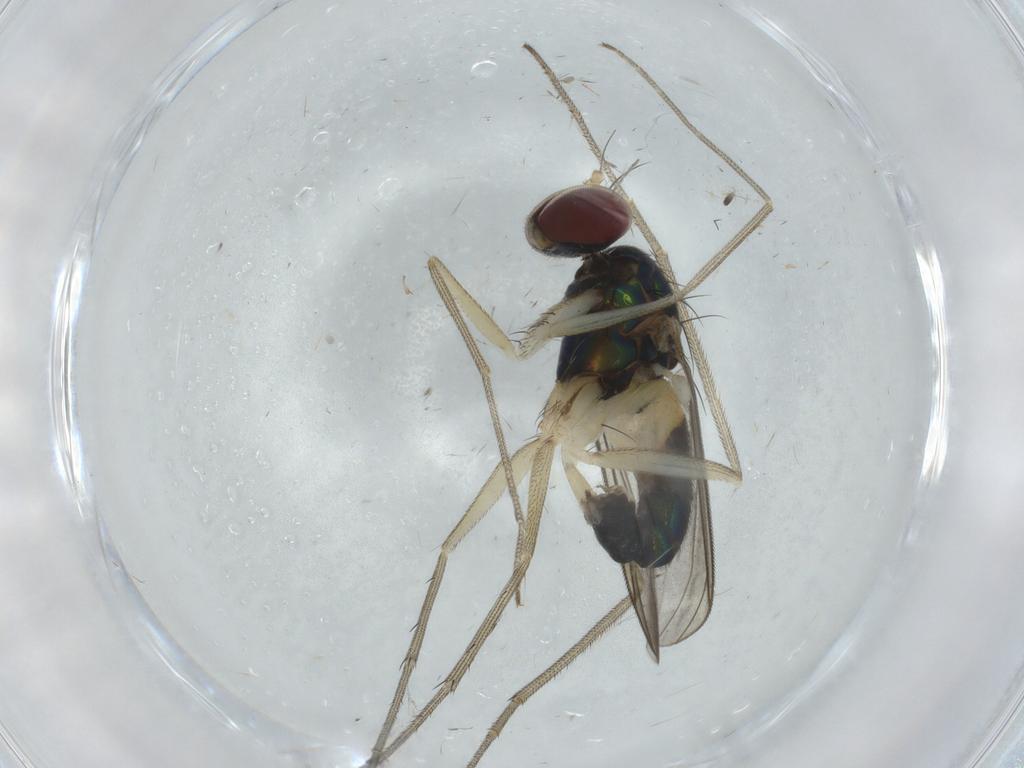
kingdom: Animalia
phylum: Arthropoda
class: Insecta
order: Diptera
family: Dolichopodidae
